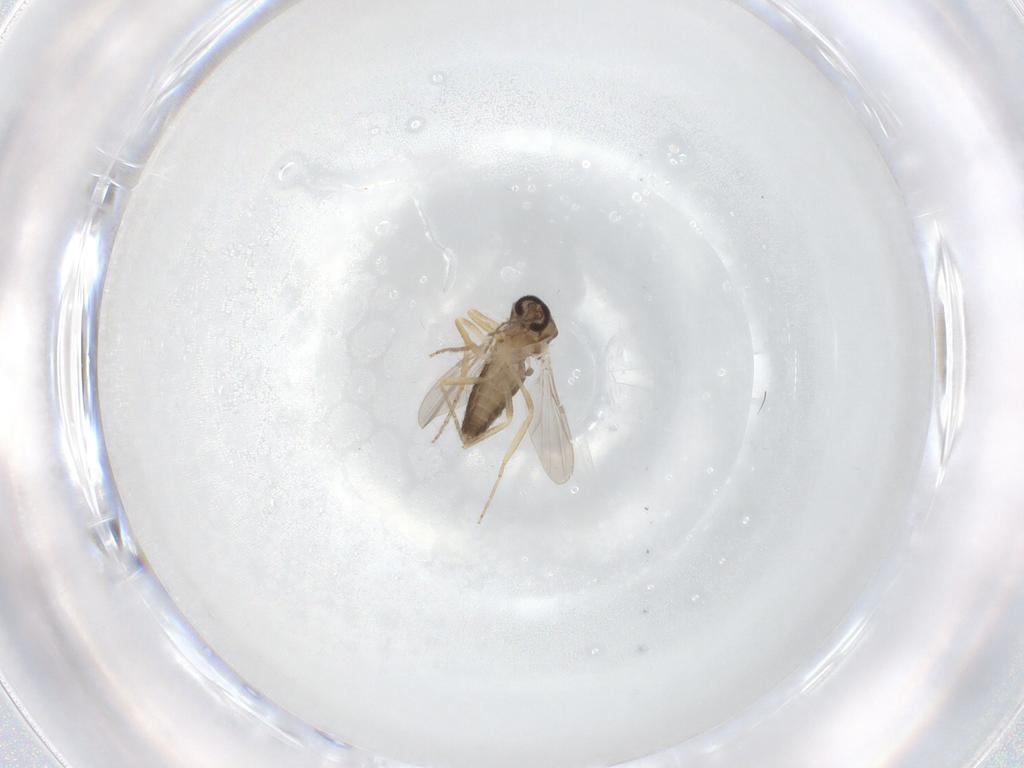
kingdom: Animalia
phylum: Arthropoda
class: Insecta
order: Diptera
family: Ceratopogonidae
